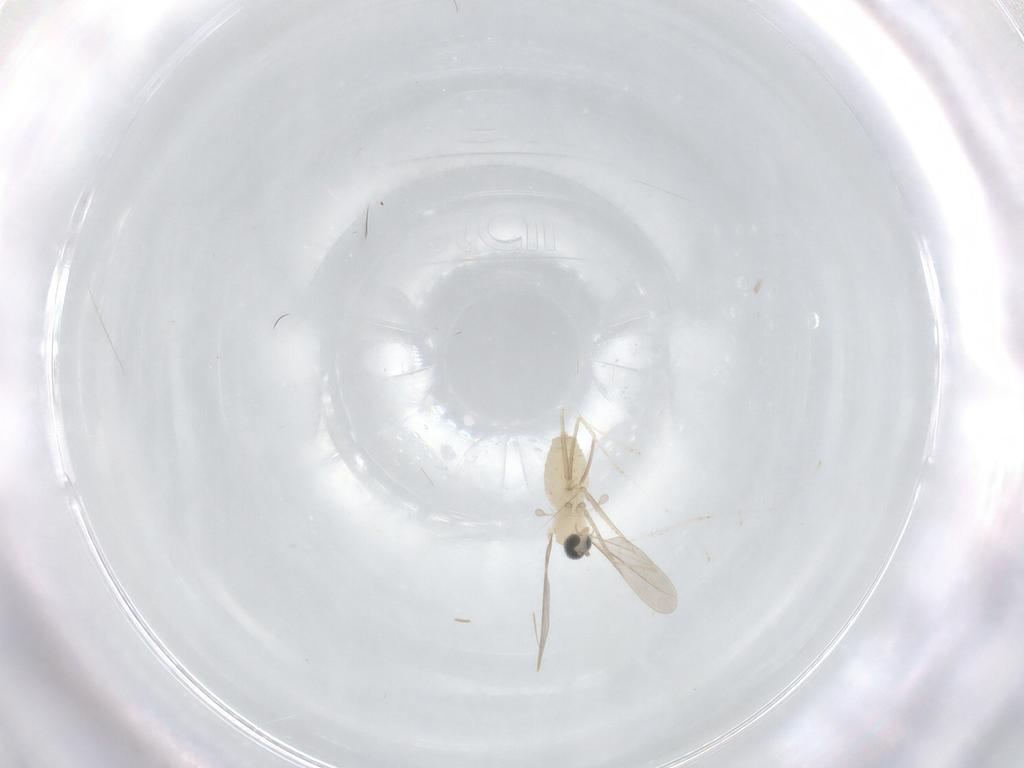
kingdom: Animalia
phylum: Arthropoda
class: Insecta
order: Diptera
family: Cecidomyiidae
